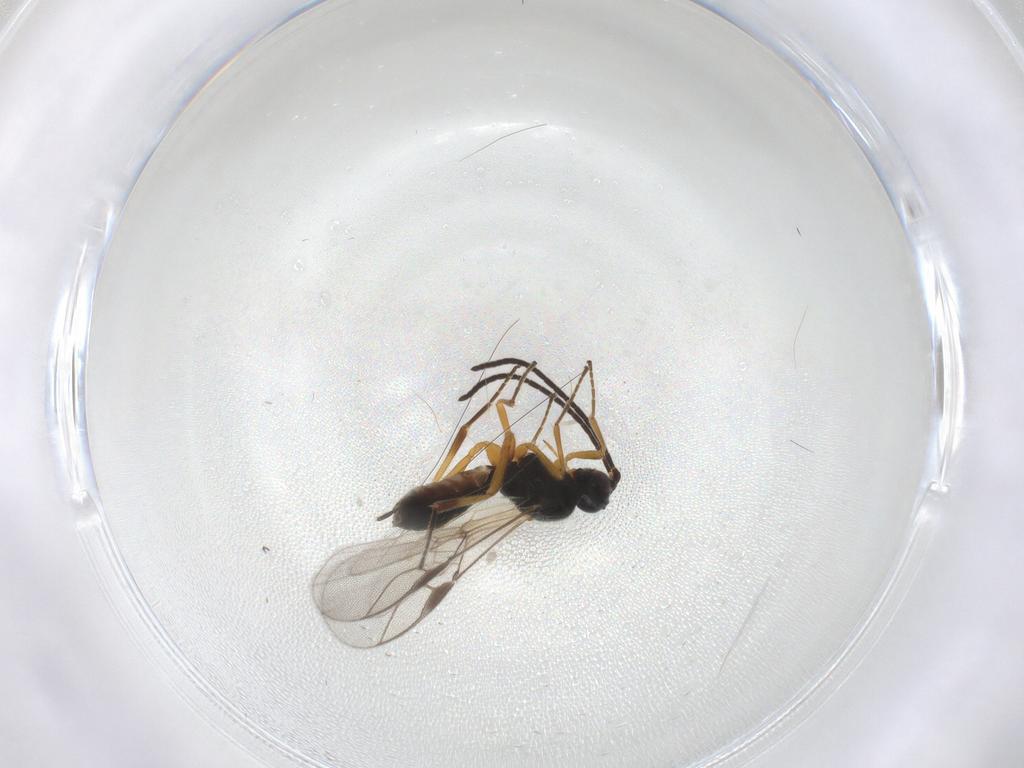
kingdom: Animalia
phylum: Arthropoda
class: Insecta
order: Hymenoptera
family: Braconidae
